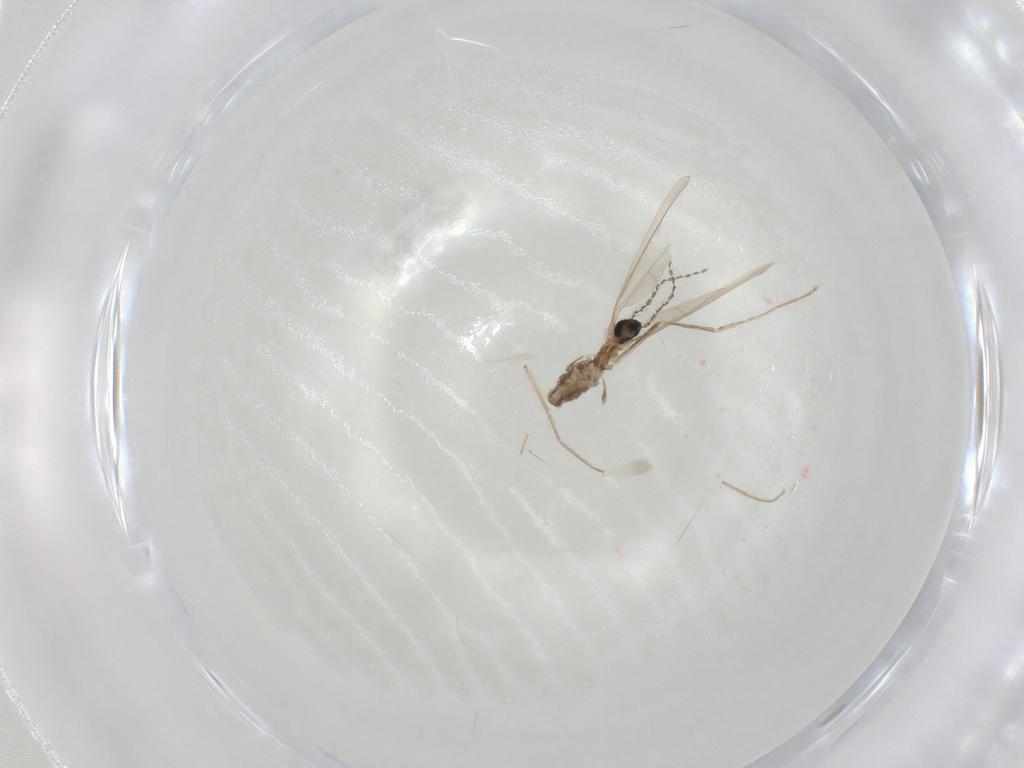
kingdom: Animalia
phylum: Arthropoda
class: Insecta
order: Diptera
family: Cecidomyiidae
